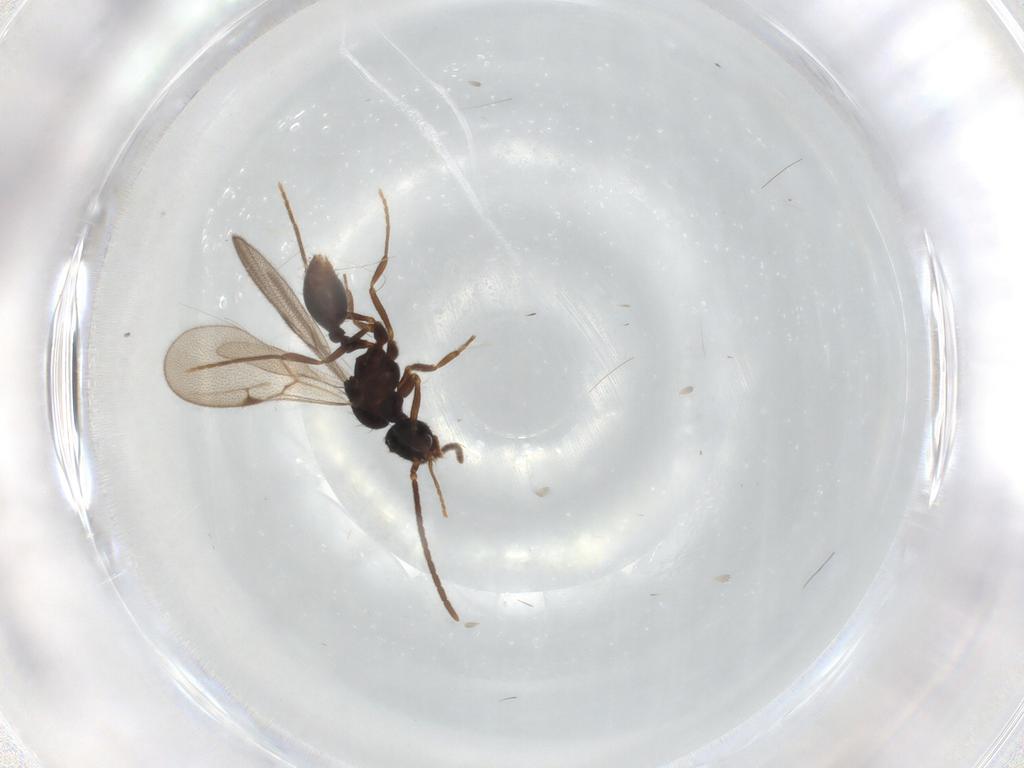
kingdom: Animalia
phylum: Arthropoda
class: Insecta
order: Hymenoptera
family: Formicidae
